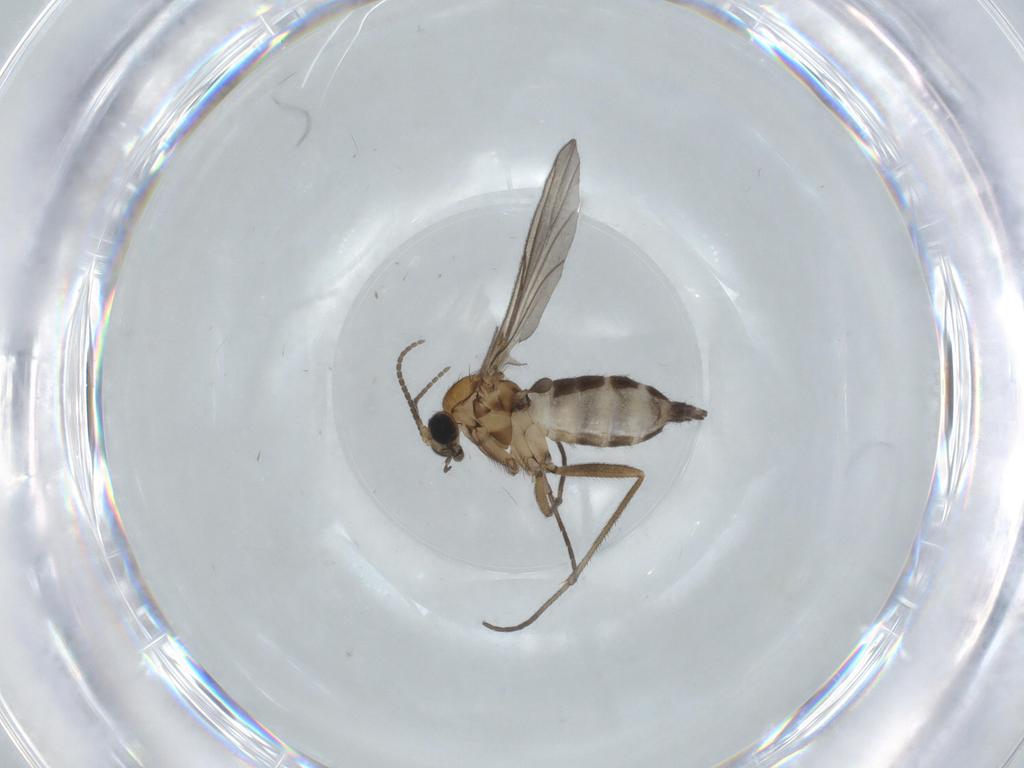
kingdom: Animalia
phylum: Arthropoda
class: Insecta
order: Diptera
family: Sciaridae
